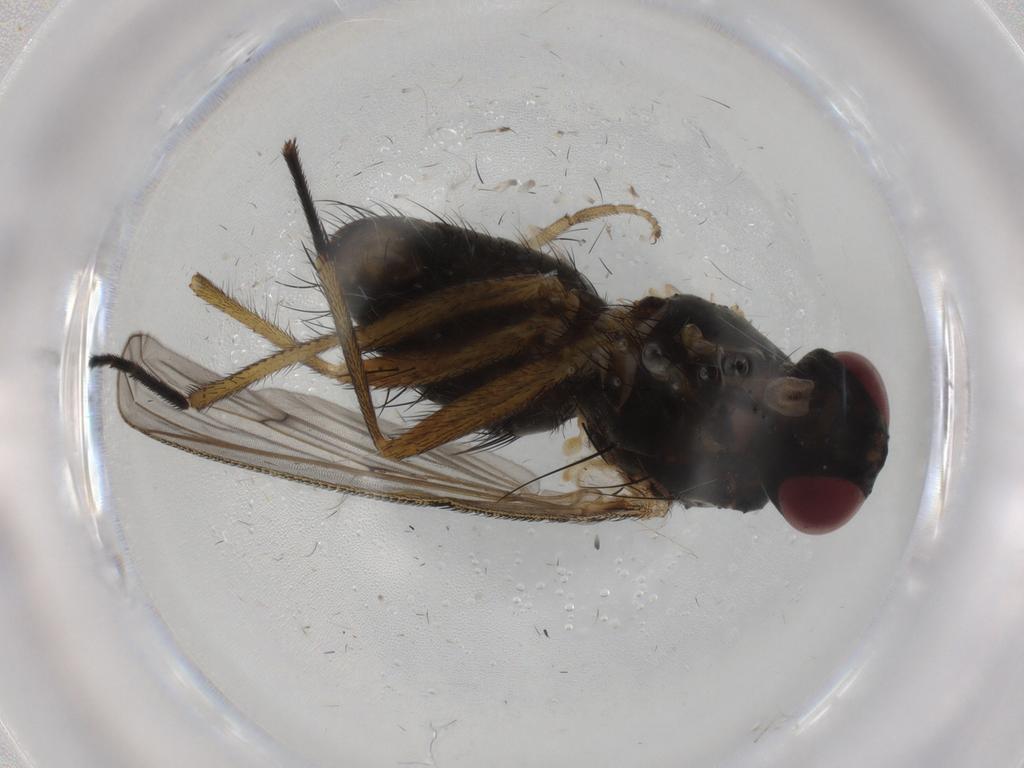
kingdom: Animalia
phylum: Arthropoda
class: Insecta
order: Diptera
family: Muscidae
